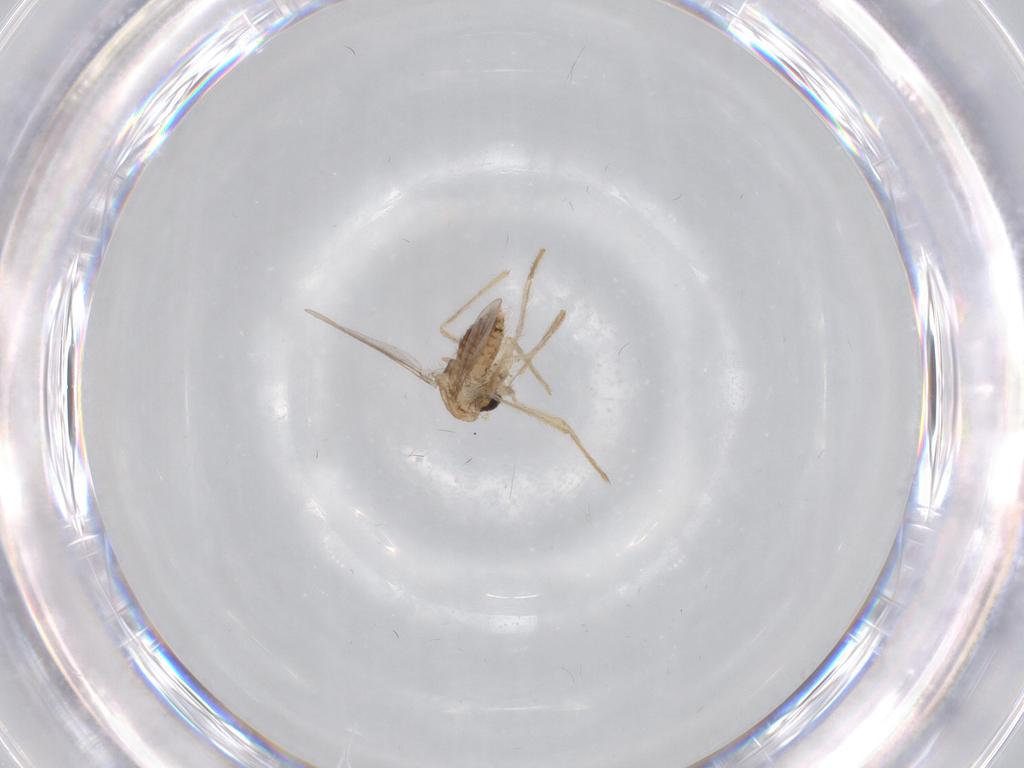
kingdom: Animalia
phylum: Arthropoda
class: Insecta
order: Diptera
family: Chironomidae
